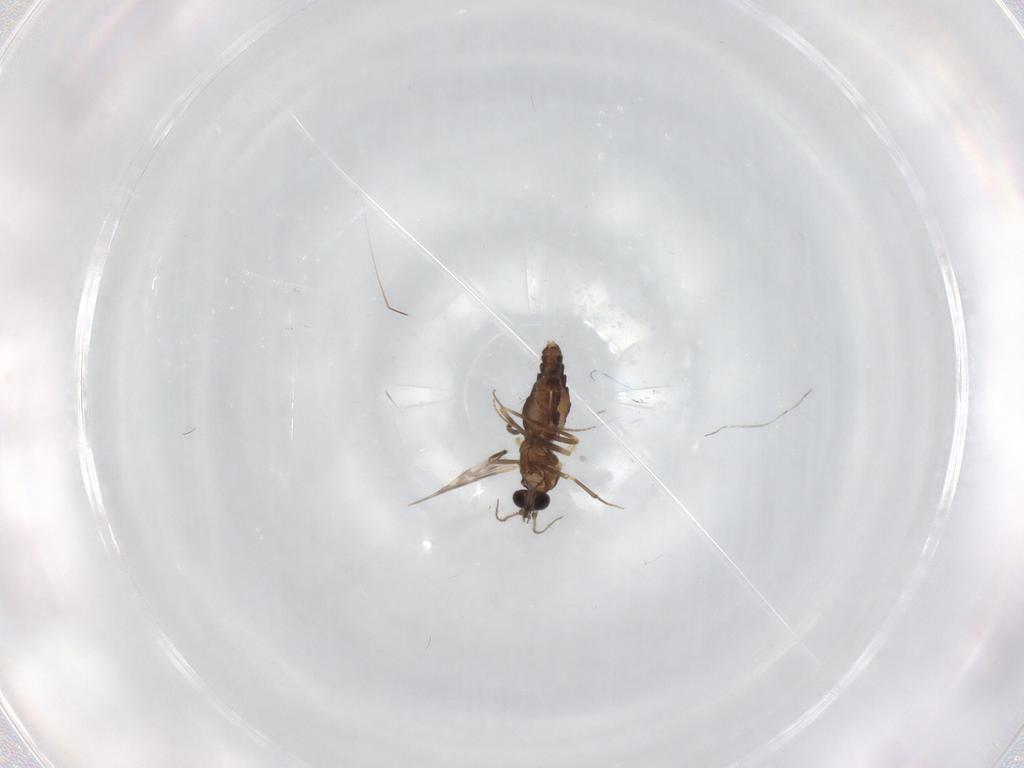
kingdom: Animalia
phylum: Arthropoda
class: Insecta
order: Diptera
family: Ceratopogonidae
